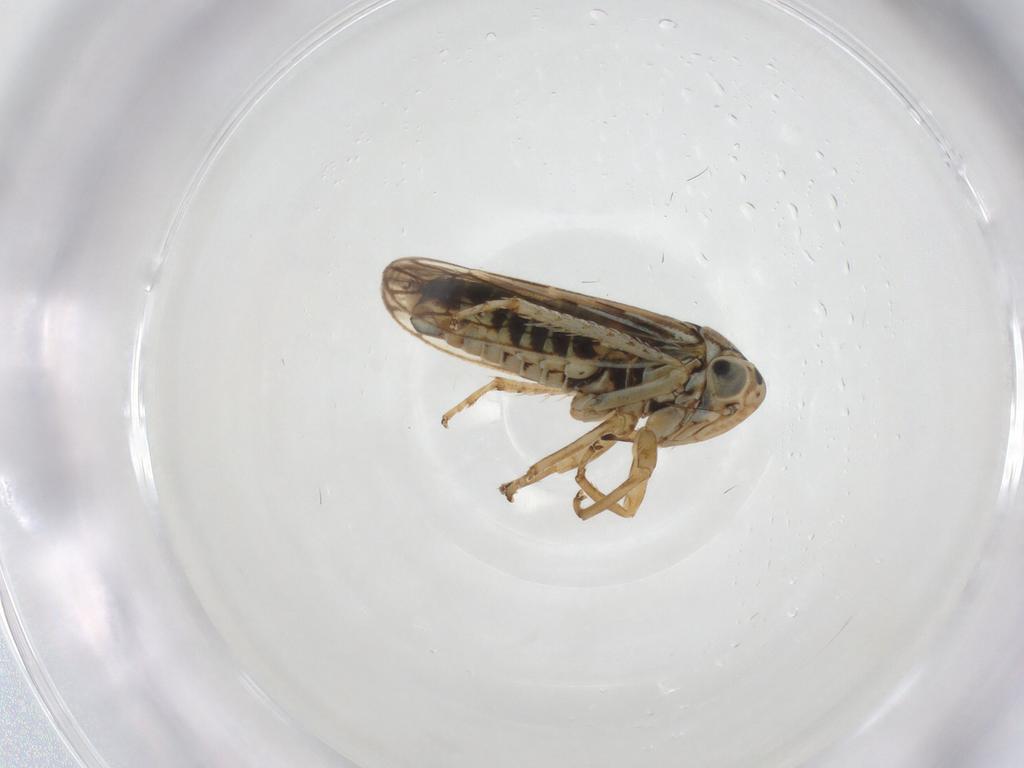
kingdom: Animalia
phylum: Arthropoda
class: Insecta
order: Hemiptera
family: Cicadellidae
